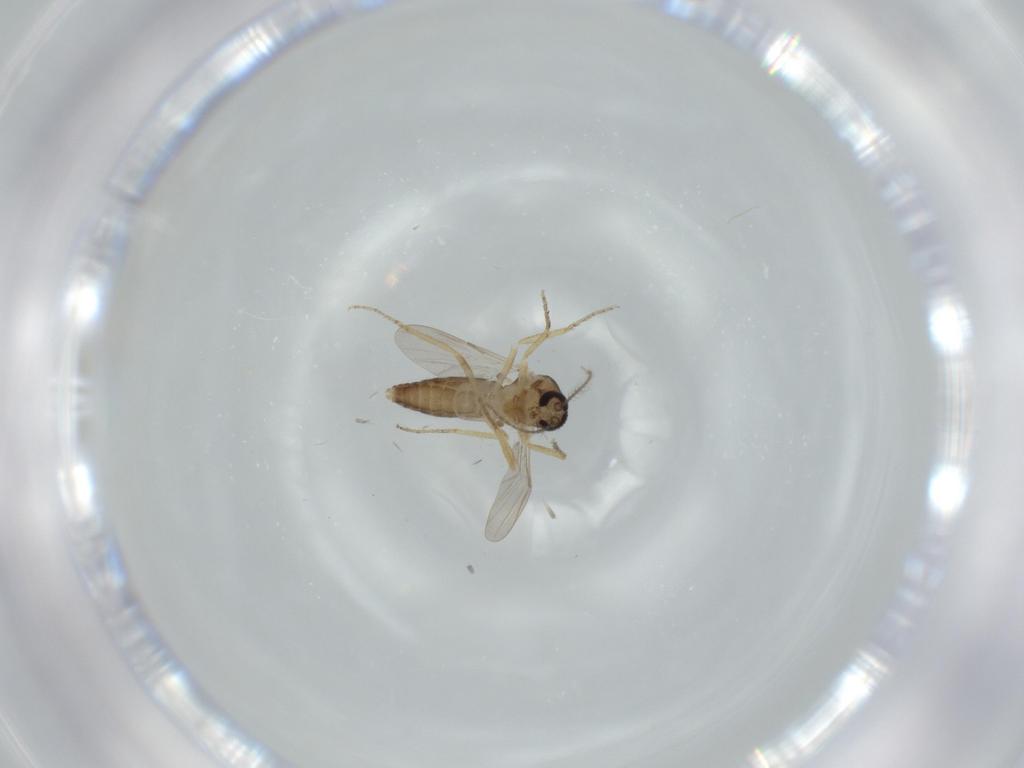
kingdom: Animalia
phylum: Arthropoda
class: Insecta
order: Diptera
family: Ceratopogonidae
